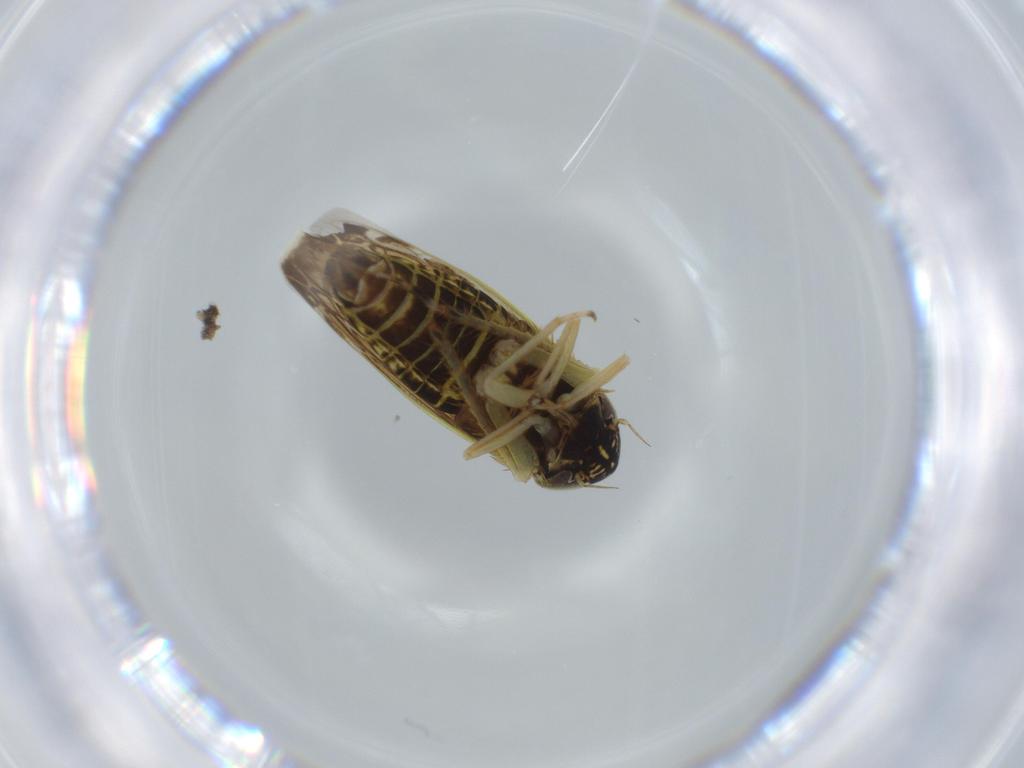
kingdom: Animalia
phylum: Arthropoda
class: Insecta
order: Hemiptera
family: Cicadellidae
